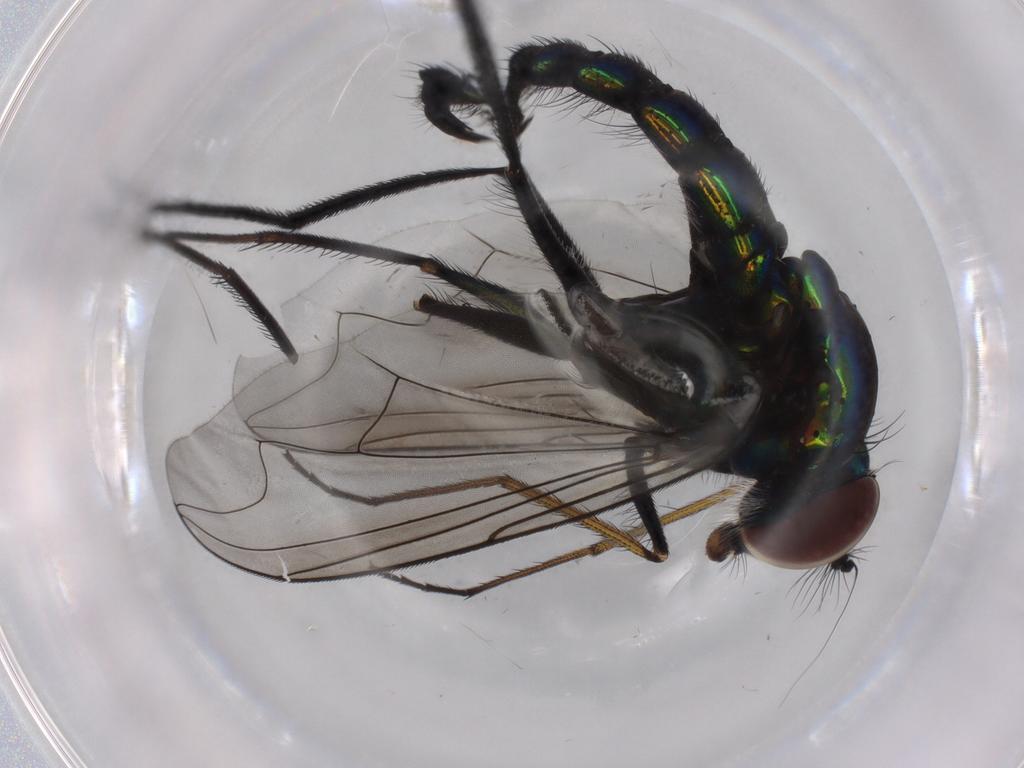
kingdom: Animalia
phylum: Arthropoda
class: Insecta
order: Diptera
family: Dolichopodidae
